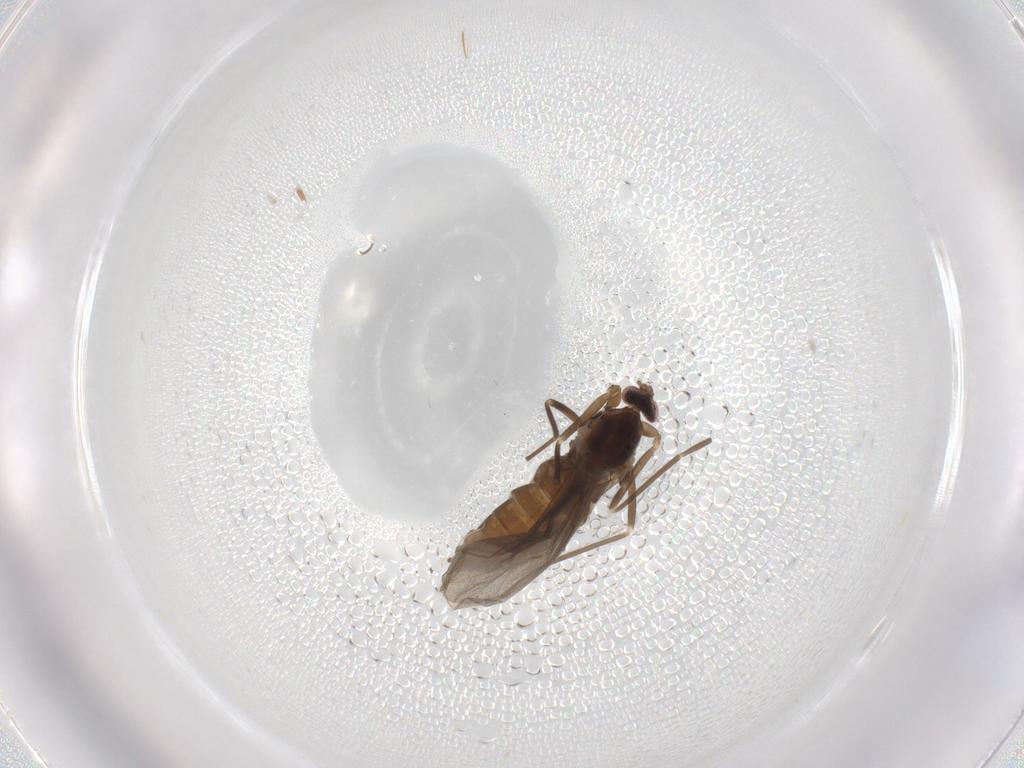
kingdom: Animalia
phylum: Arthropoda
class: Insecta
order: Diptera
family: Cecidomyiidae
